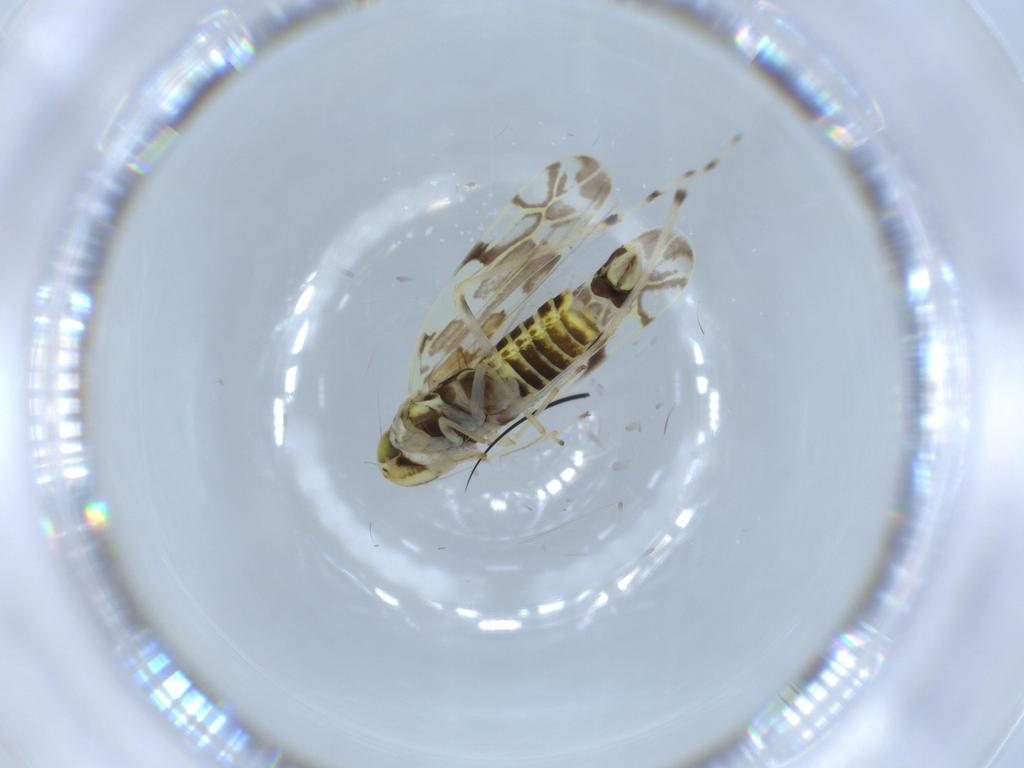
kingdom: Animalia
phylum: Arthropoda
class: Insecta
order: Hemiptera
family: Cicadellidae
